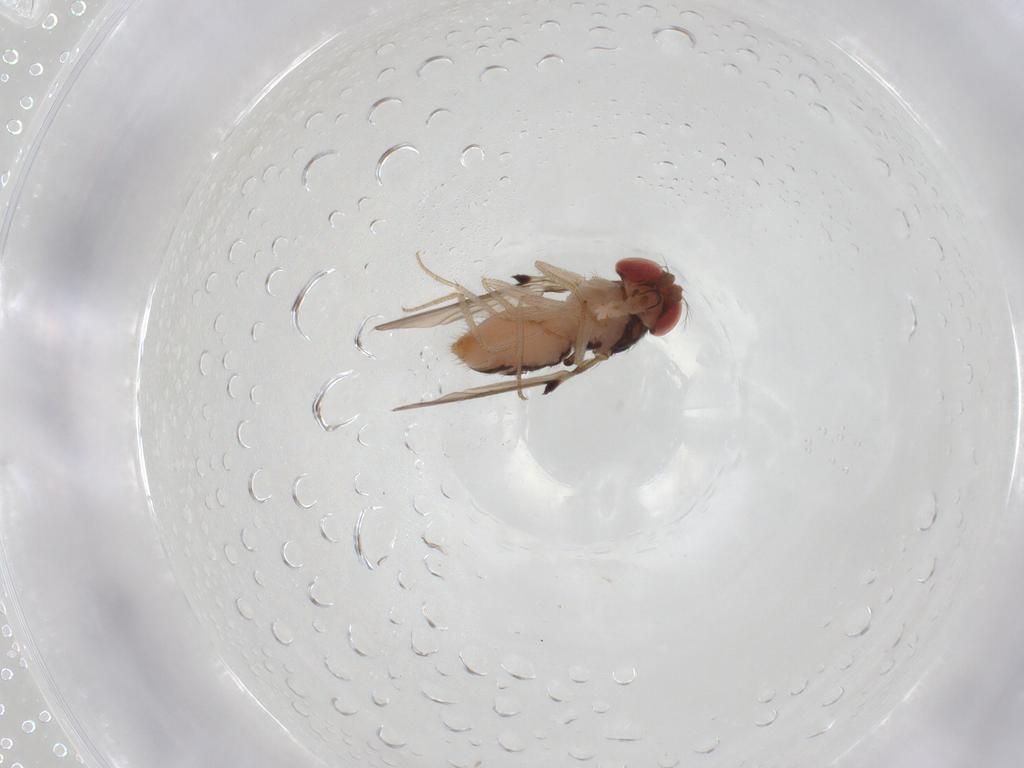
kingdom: Animalia
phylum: Arthropoda
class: Insecta
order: Diptera
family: Drosophilidae
